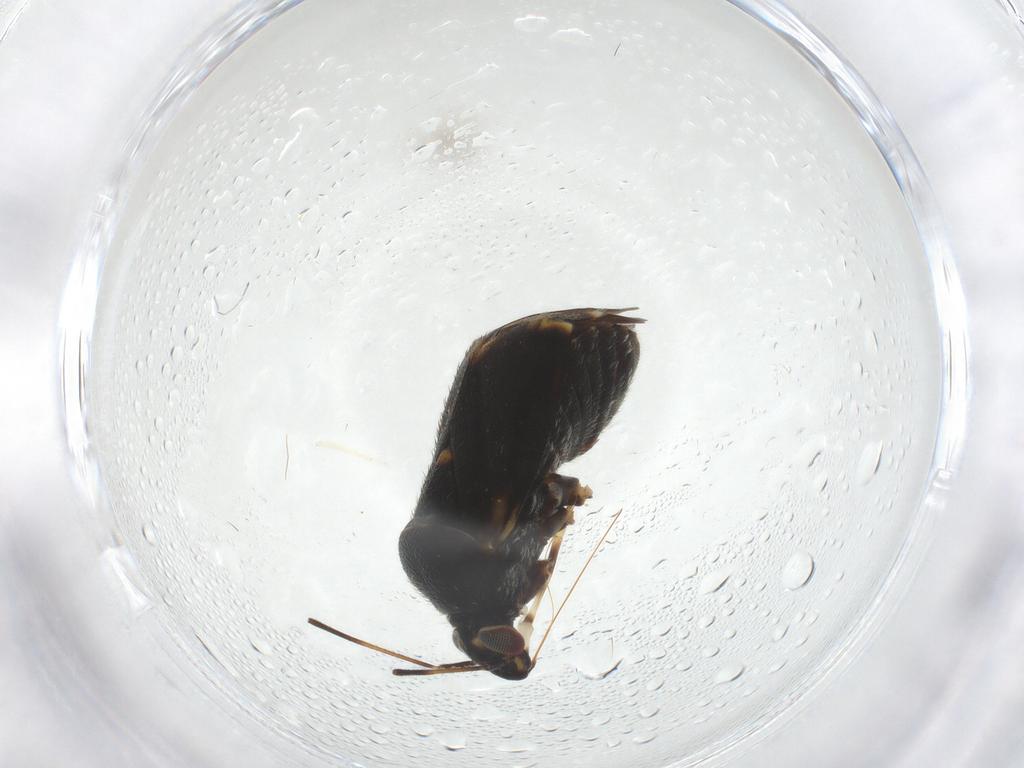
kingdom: Animalia
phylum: Arthropoda
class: Insecta
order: Hemiptera
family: Miridae
